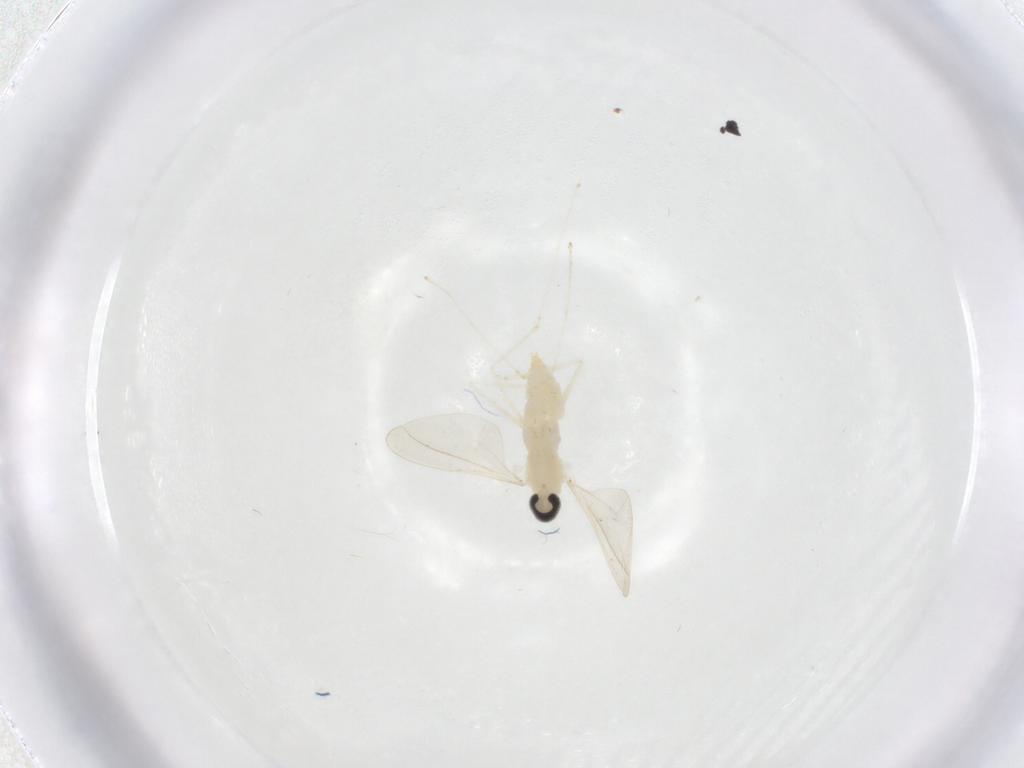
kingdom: Animalia
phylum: Arthropoda
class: Insecta
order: Diptera
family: Cecidomyiidae
